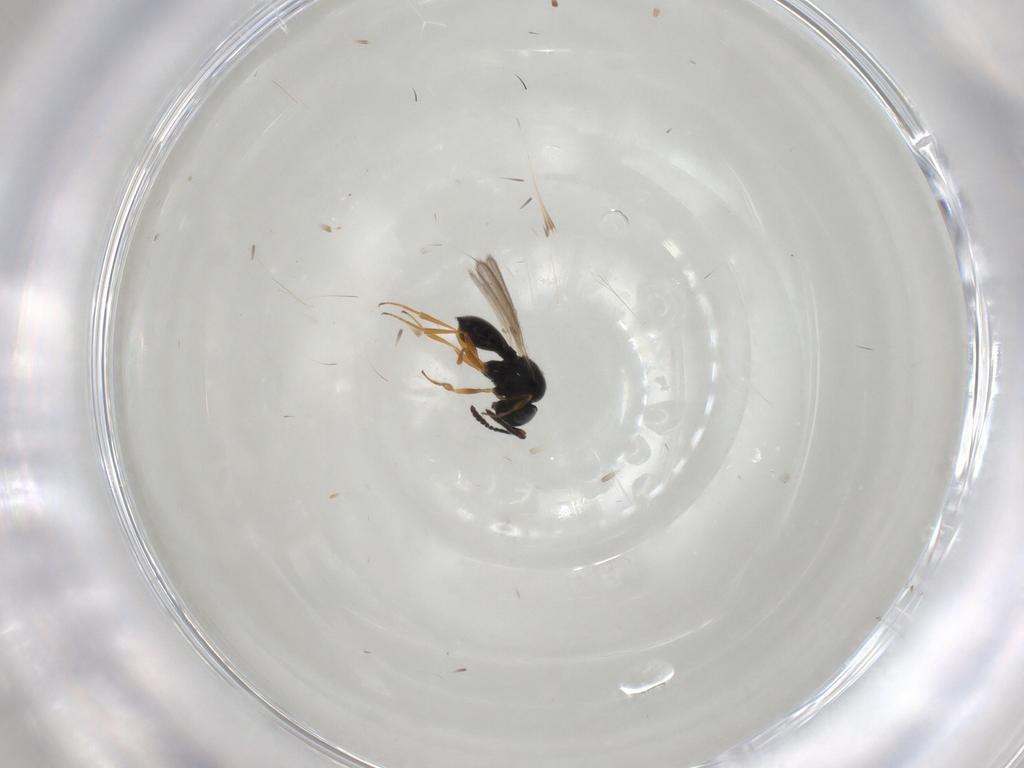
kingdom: Animalia
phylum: Arthropoda
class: Insecta
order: Hymenoptera
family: Scelionidae
